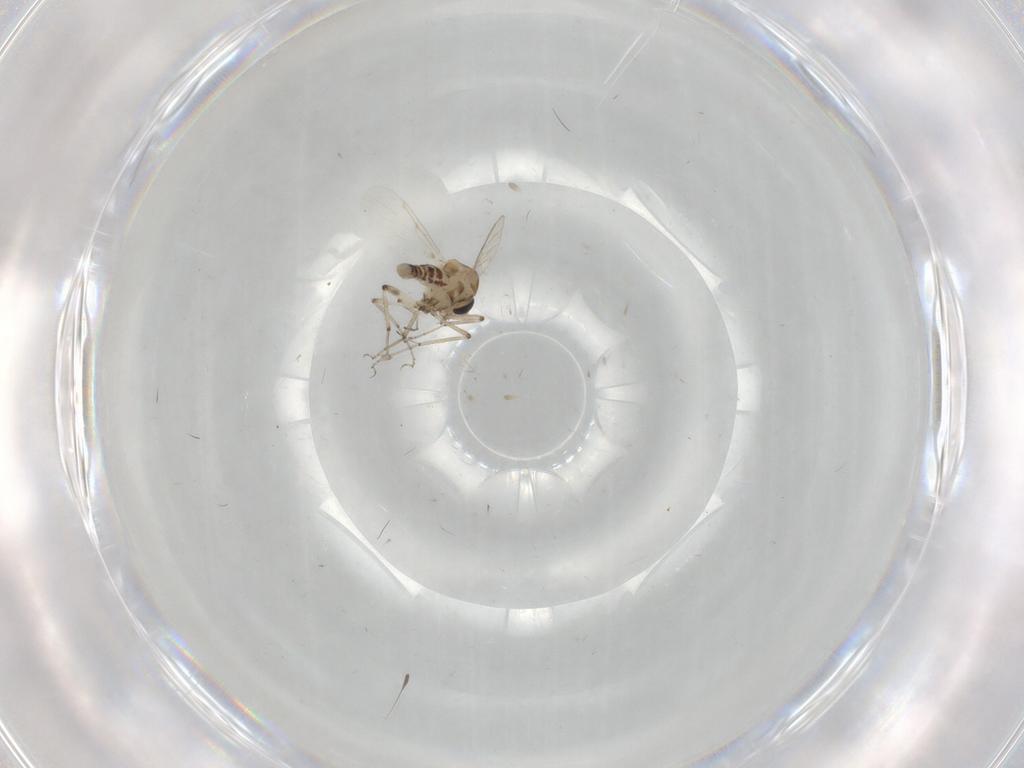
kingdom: Animalia
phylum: Arthropoda
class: Insecta
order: Diptera
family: Ceratopogonidae
